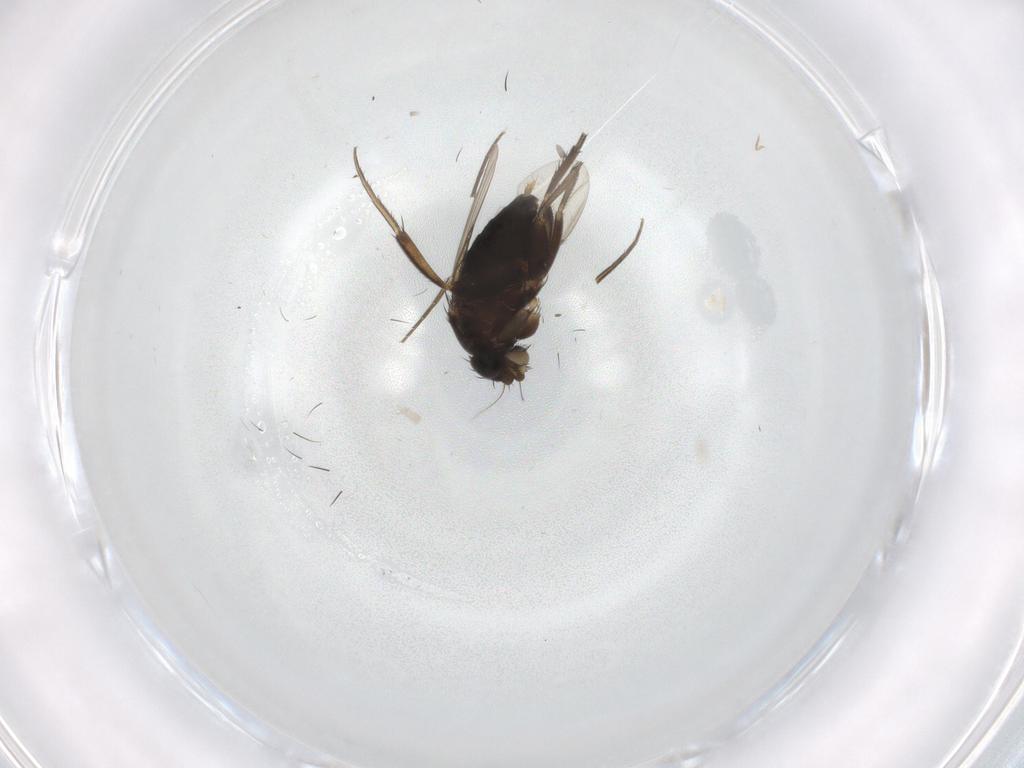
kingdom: Animalia
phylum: Arthropoda
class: Insecta
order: Diptera
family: Phoridae
